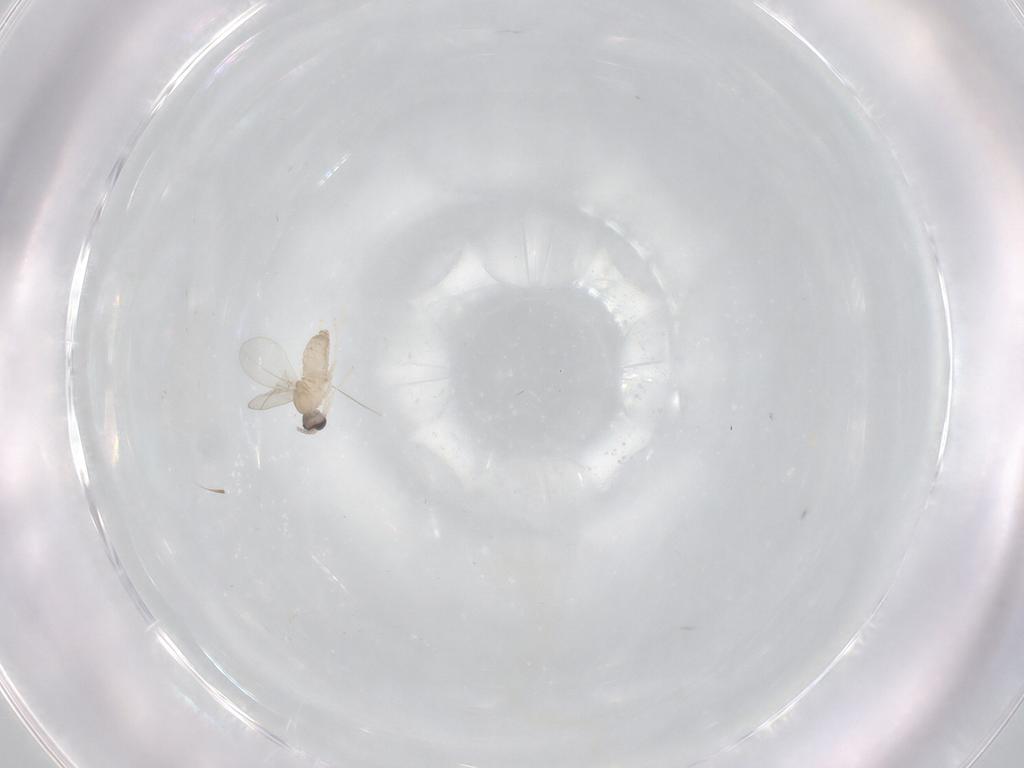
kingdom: Animalia
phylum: Arthropoda
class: Insecta
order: Diptera
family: Cecidomyiidae
